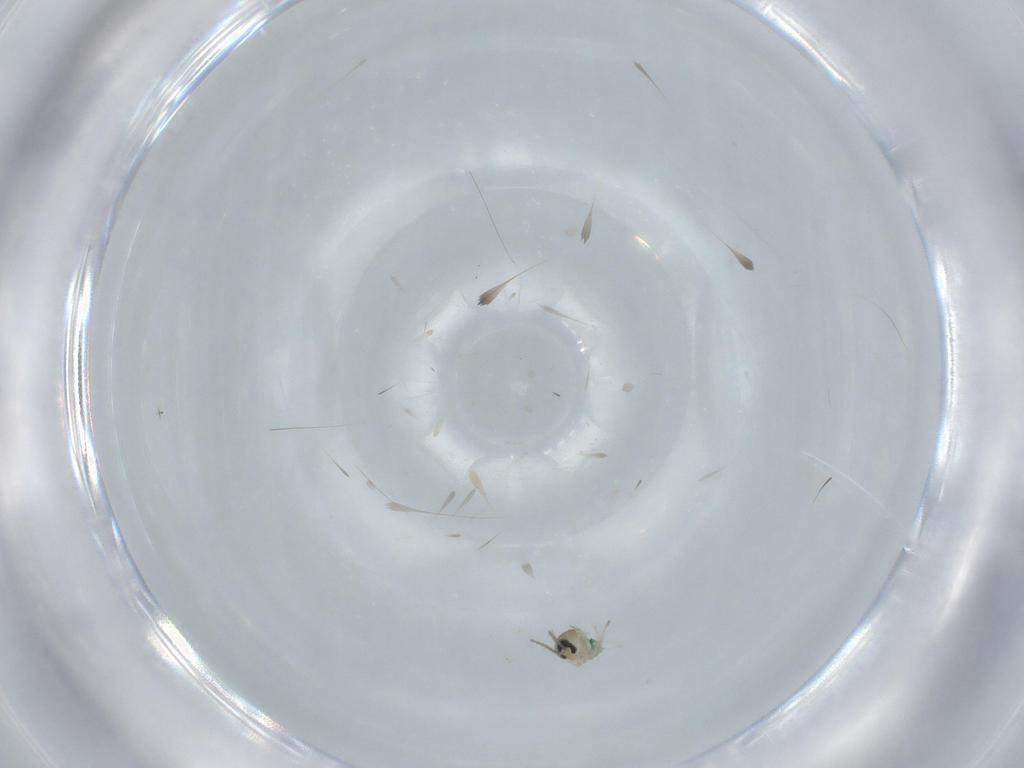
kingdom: Animalia
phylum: Arthropoda
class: Insecta
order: Diptera
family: Cecidomyiidae
